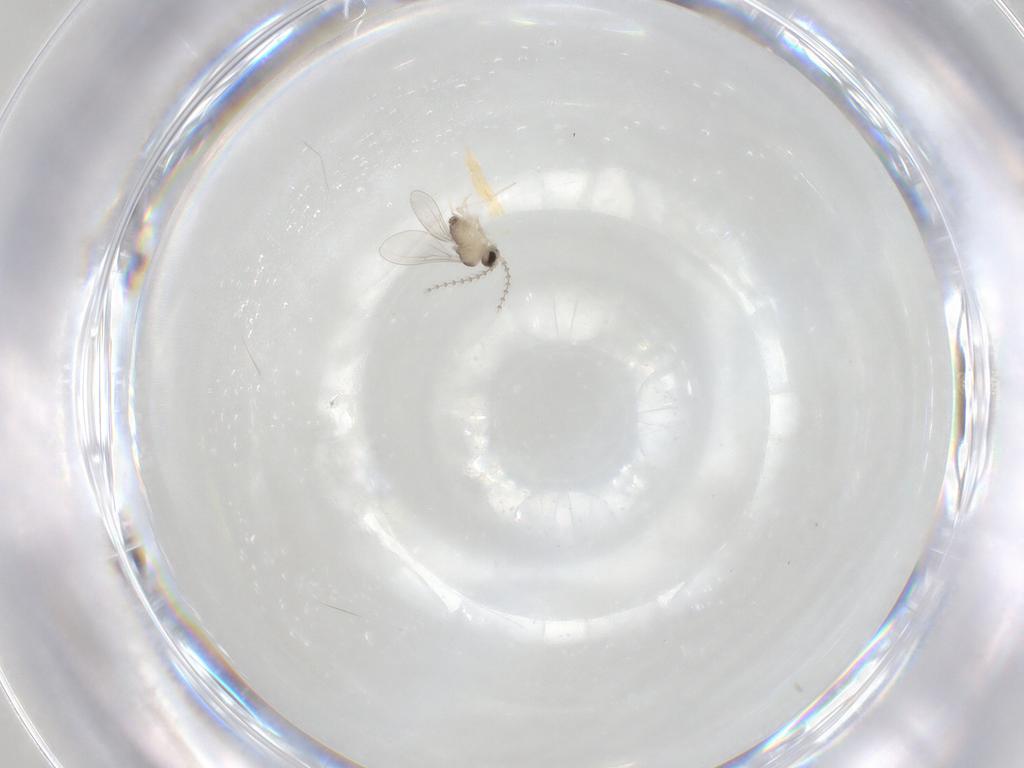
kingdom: Animalia
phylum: Arthropoda
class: Insecta
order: Diptera
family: Cecidomyiidae
